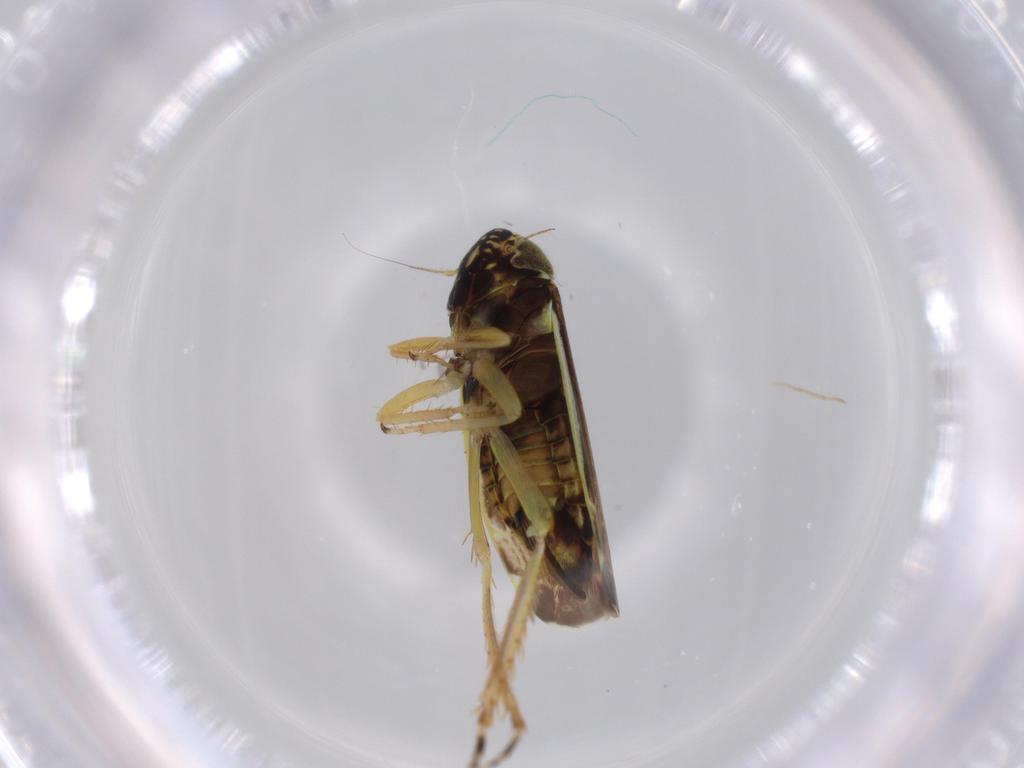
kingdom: Animalia
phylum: Arthropoda
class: Insecta
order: Hemiptera
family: Cicadellidae
